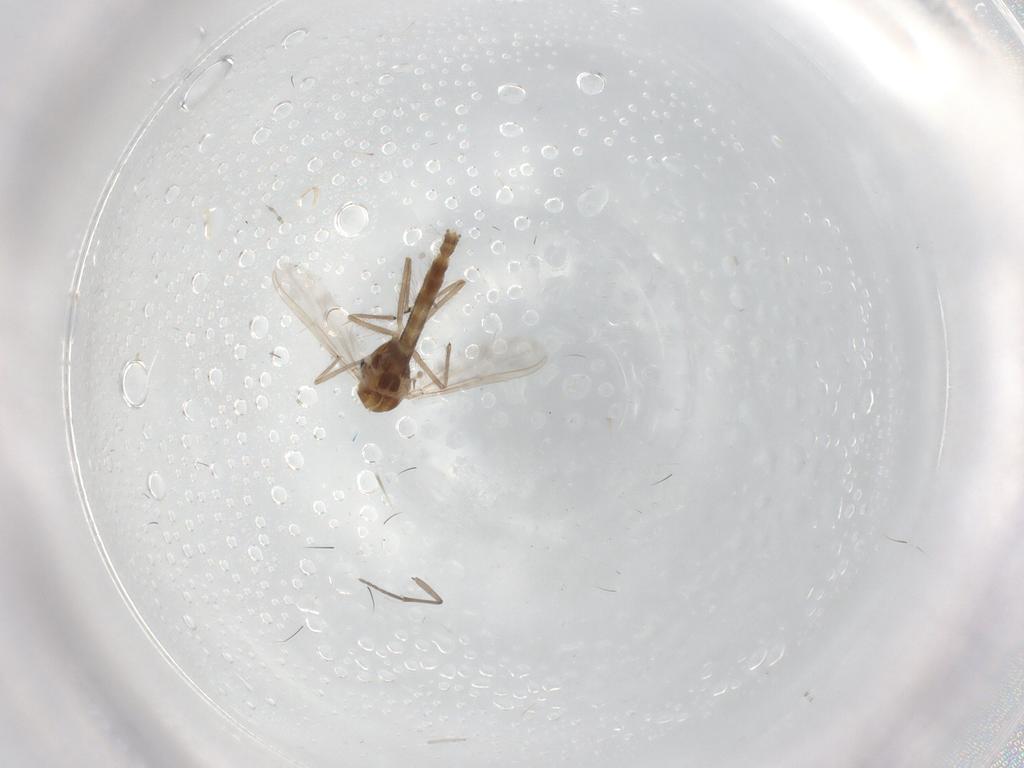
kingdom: Animalia
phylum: Arthropoda
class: Insecta
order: Diptera
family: Chironomidae
